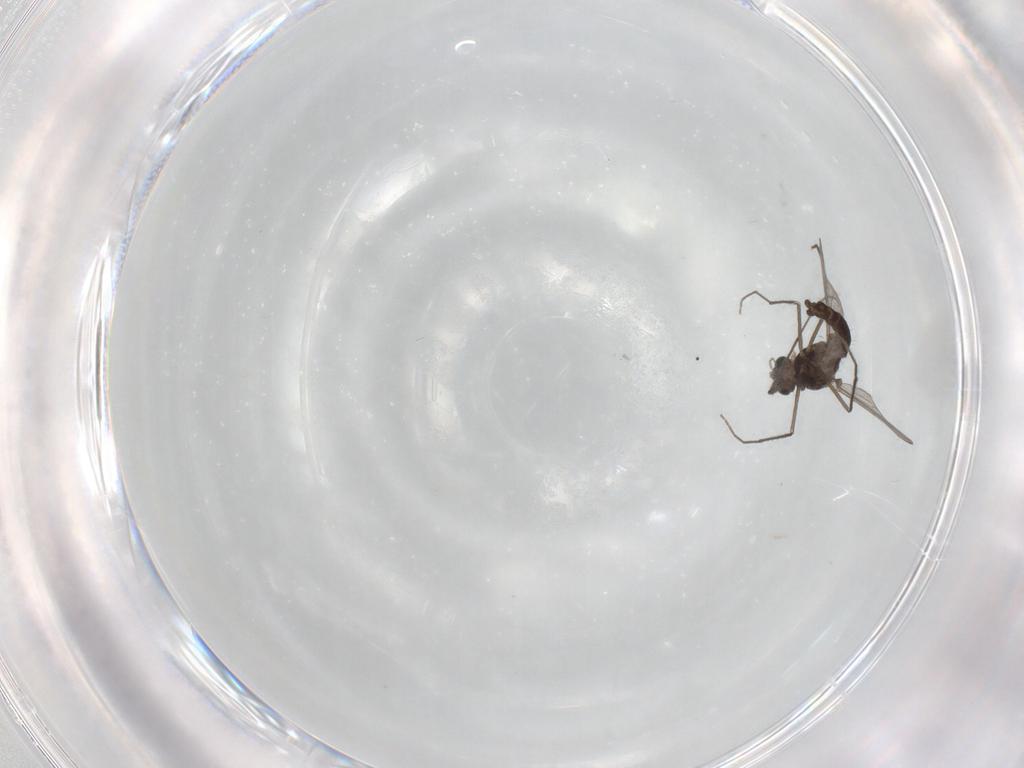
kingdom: Animalia
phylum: Arthropoda
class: Insecta
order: Diptera
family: Chironomidae
